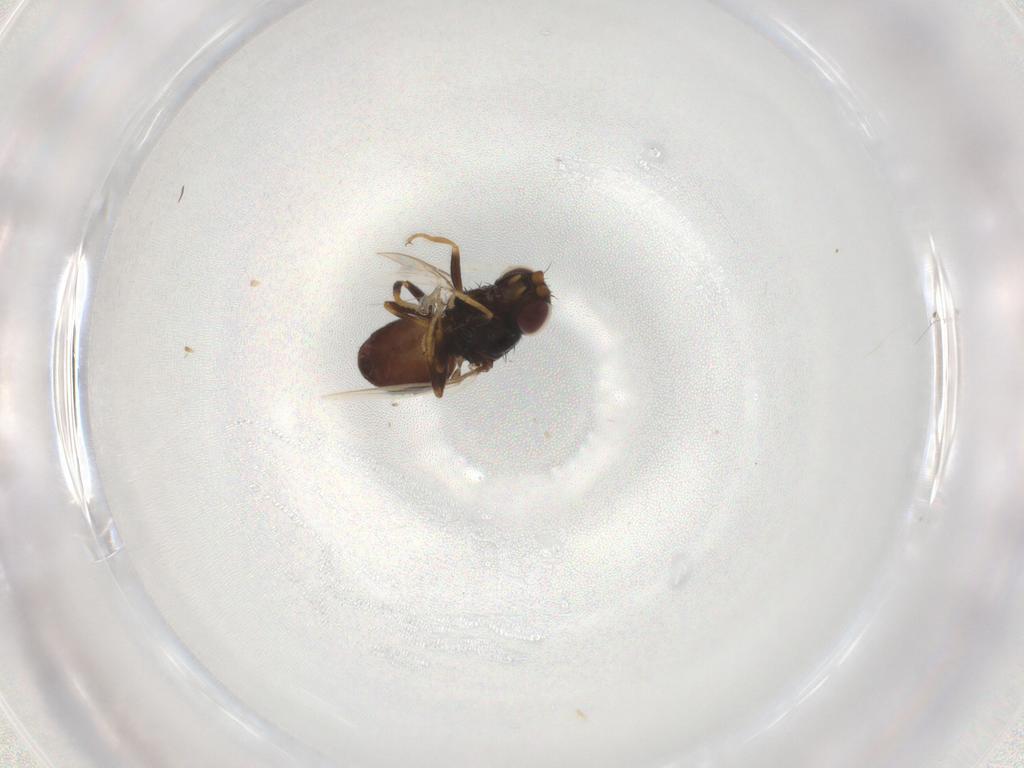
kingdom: Animalia
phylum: Arthropoda
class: Insecta
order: Diptera
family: Chloropidae
